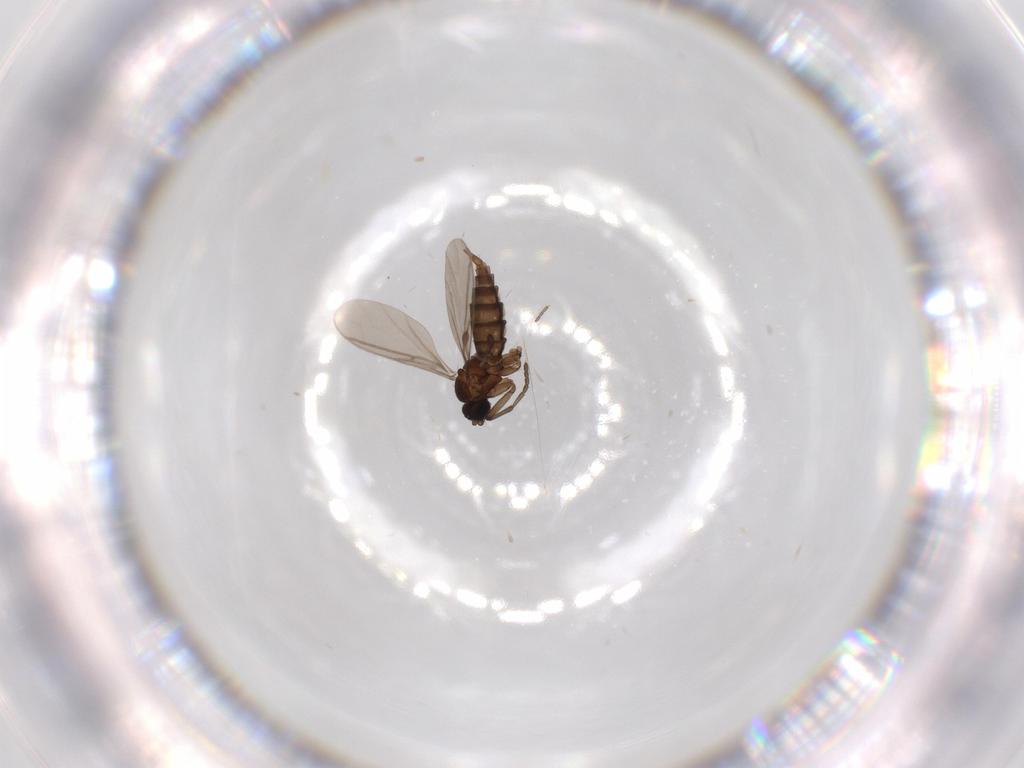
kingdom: Animalia
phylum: Arthropoda
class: Insecta
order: Diptera
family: Sciaridae
